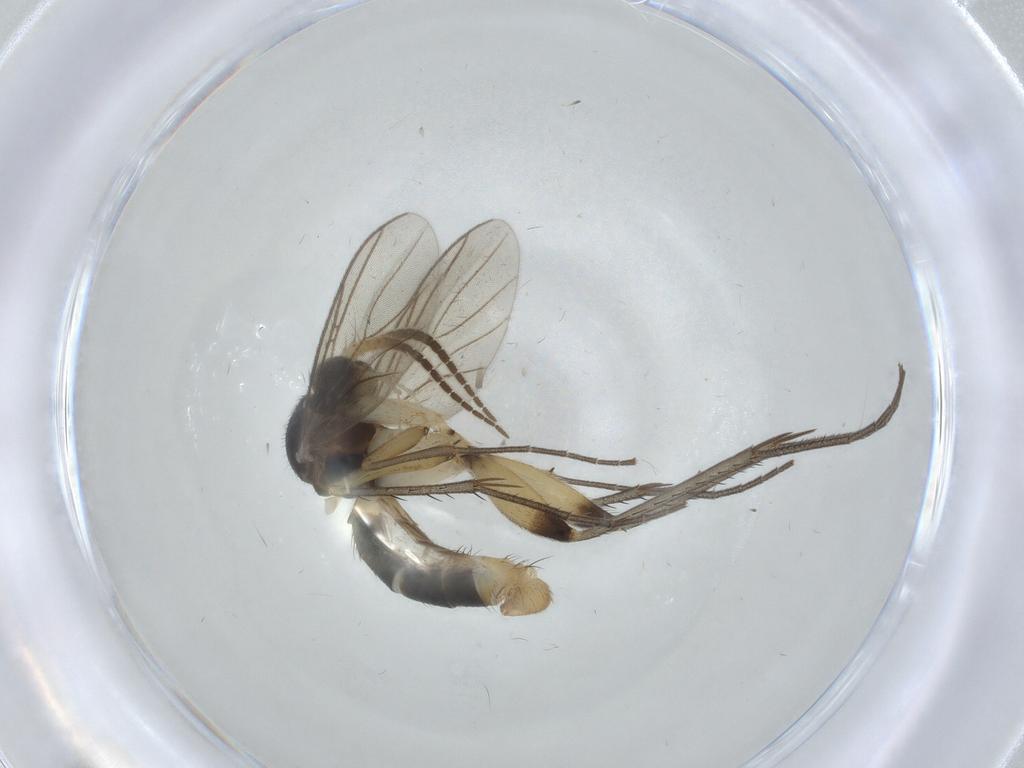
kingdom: Animalia
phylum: Arthropoda
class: Insecta
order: Diptera
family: Mycetophilidae
